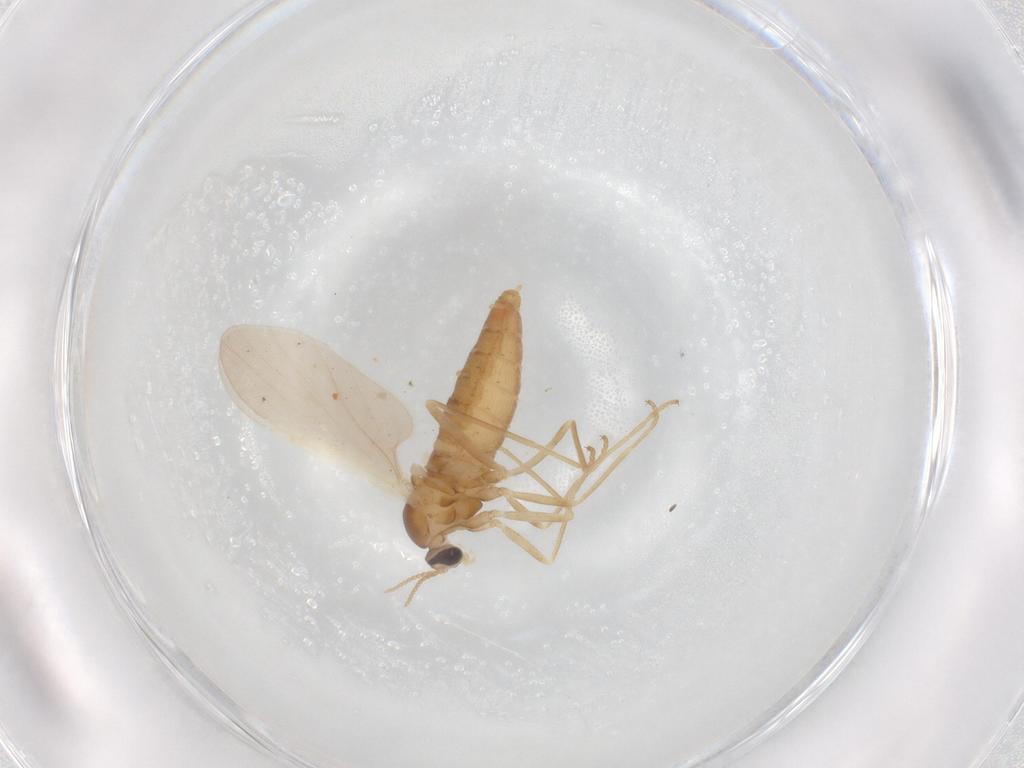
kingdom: Animalia
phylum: Arthropoda
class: Insecta
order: Diptera
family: Cecidomyiidae
